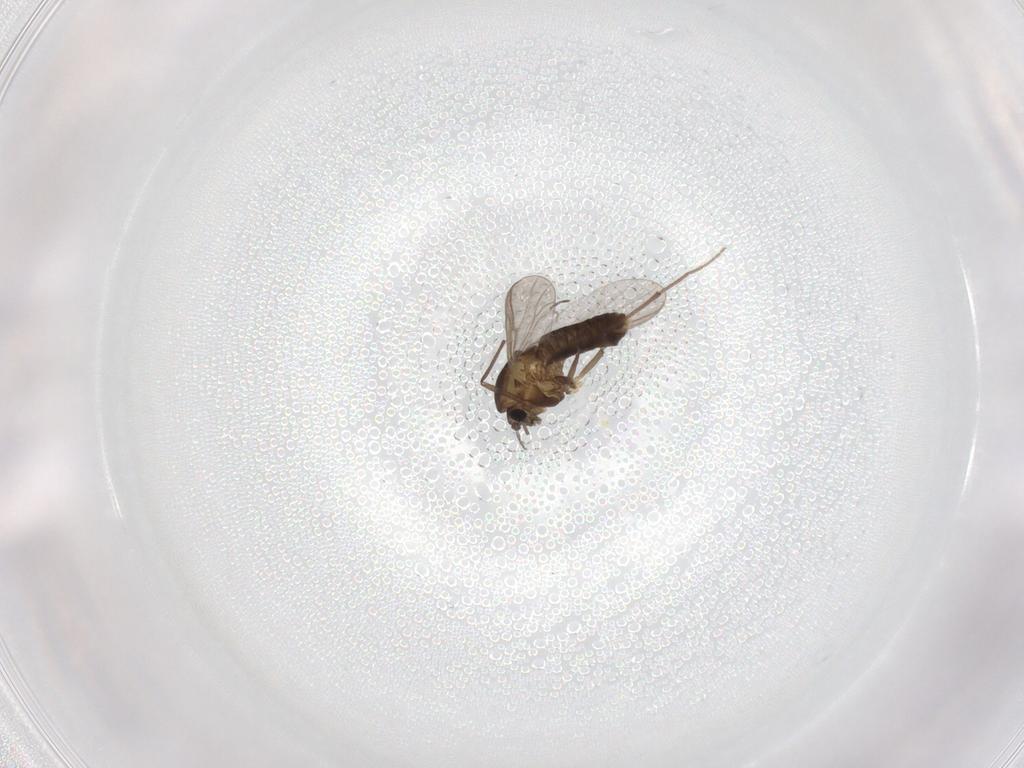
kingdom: Animalia
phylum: Arthropoda
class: Insecta
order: Diptera
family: Chironomidae
